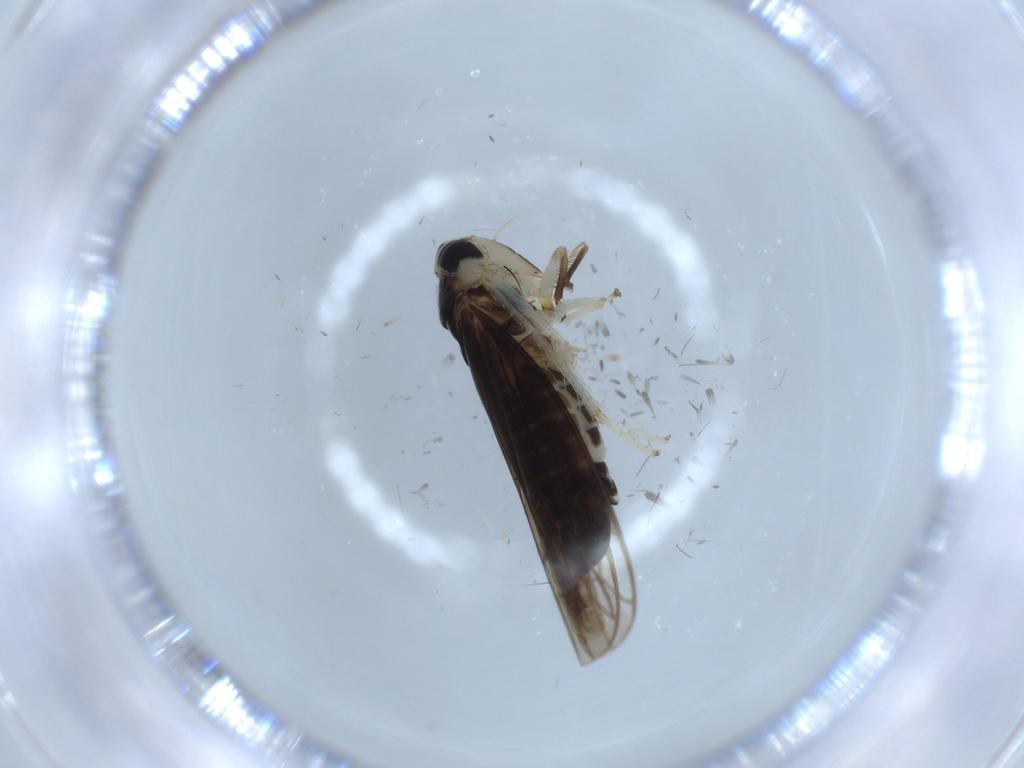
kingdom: Animalia
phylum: Arthropoda
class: Insecta
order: Hemiptera
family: Cicadellidae
